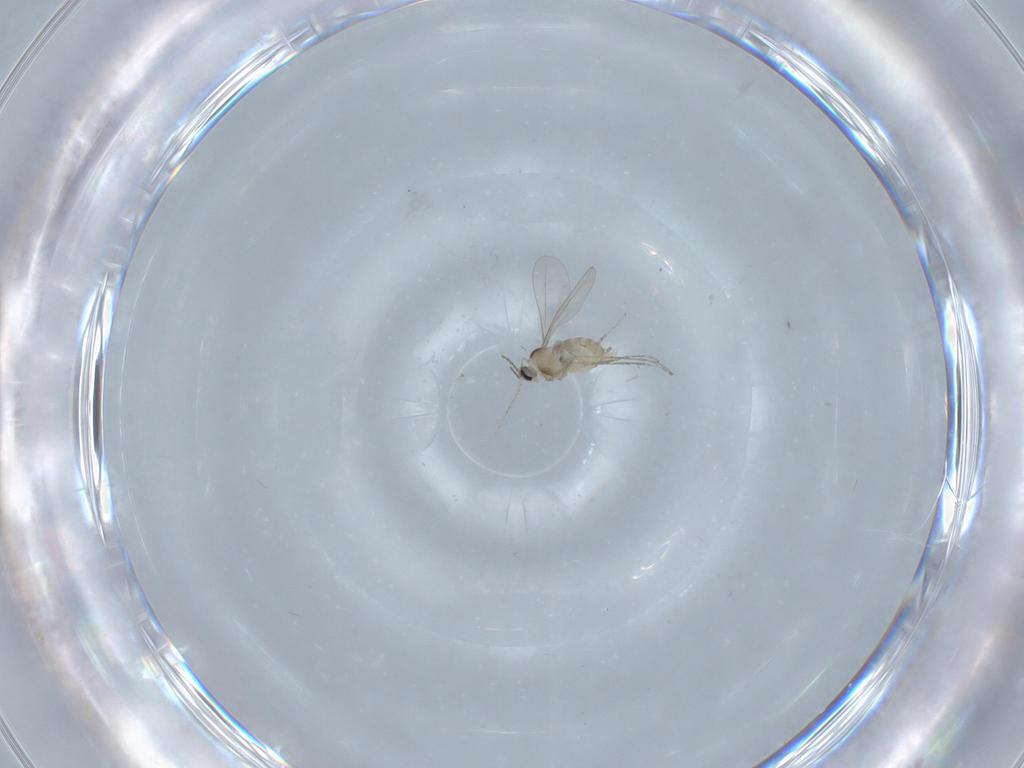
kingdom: Animalia
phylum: Arthropoda
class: Insecta
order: Diptera
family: Cecidomyiidae
